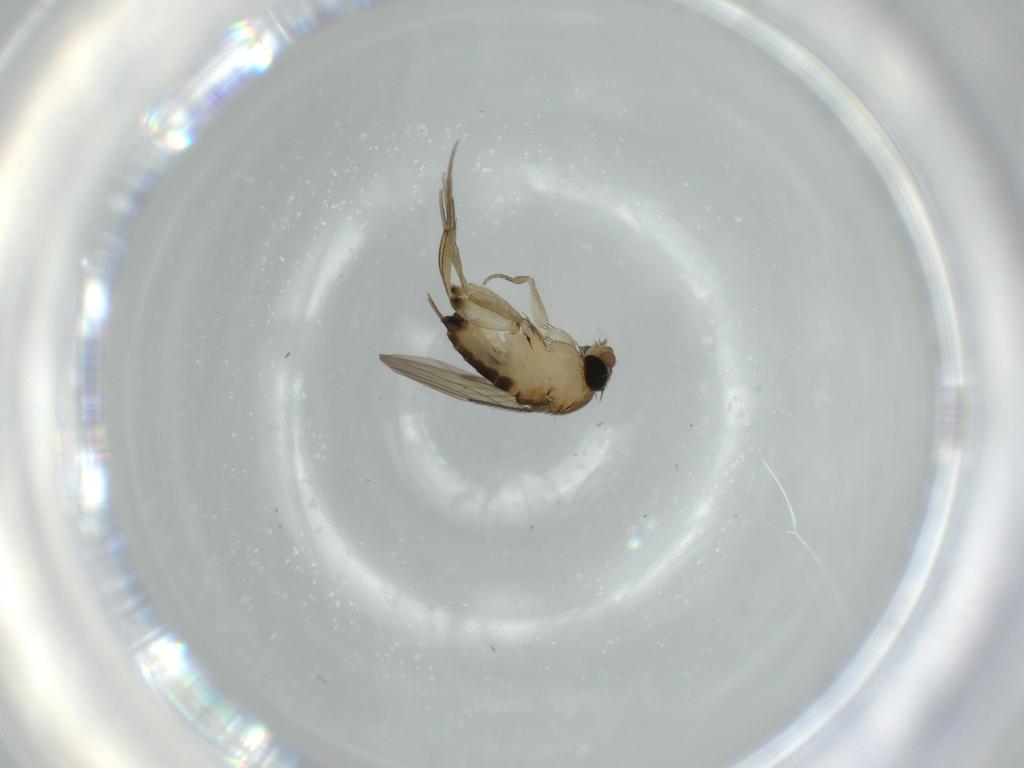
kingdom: Animalia
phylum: Arthropoda
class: Insecta
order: Diptera
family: Phoridae
